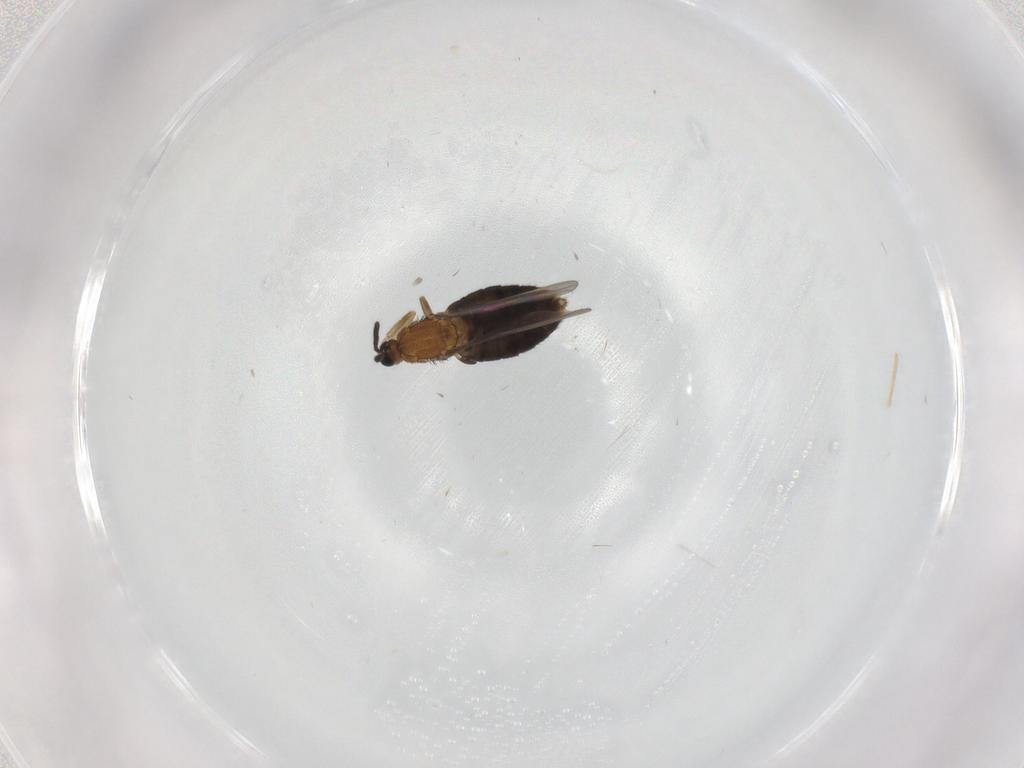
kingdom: Animalia
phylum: Arthropoda
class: Insecta
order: Diptera
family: Scatopsidae
